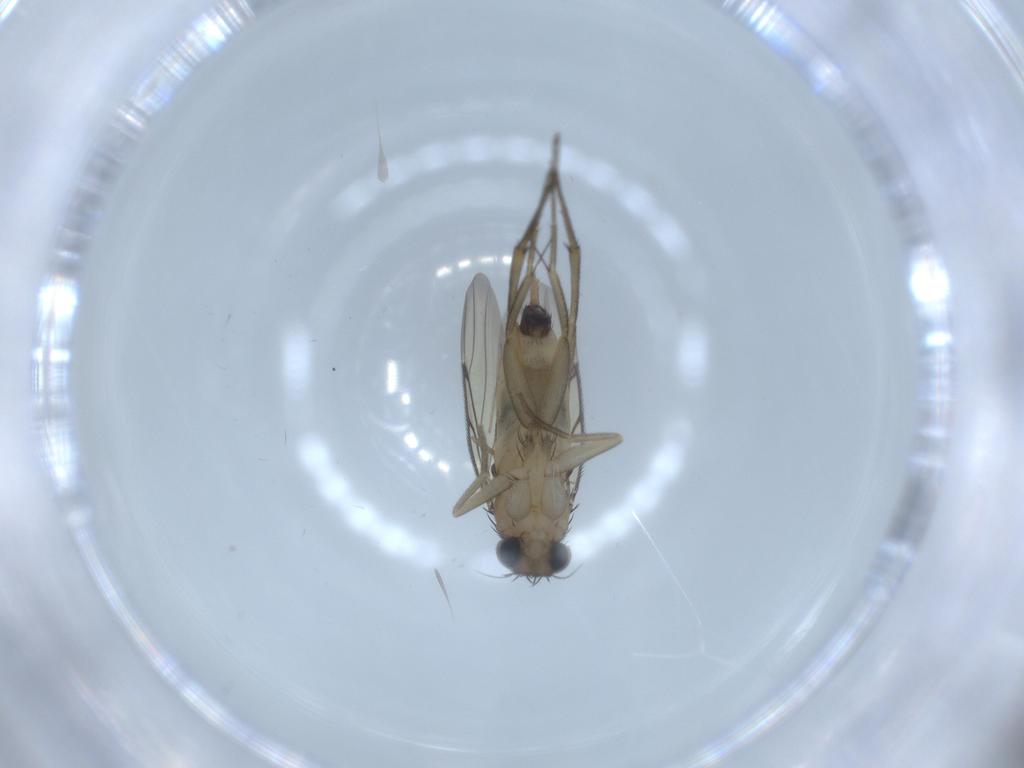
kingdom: Animalia
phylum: Arthropoda
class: Insecta
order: Diptera
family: Chironomidae
